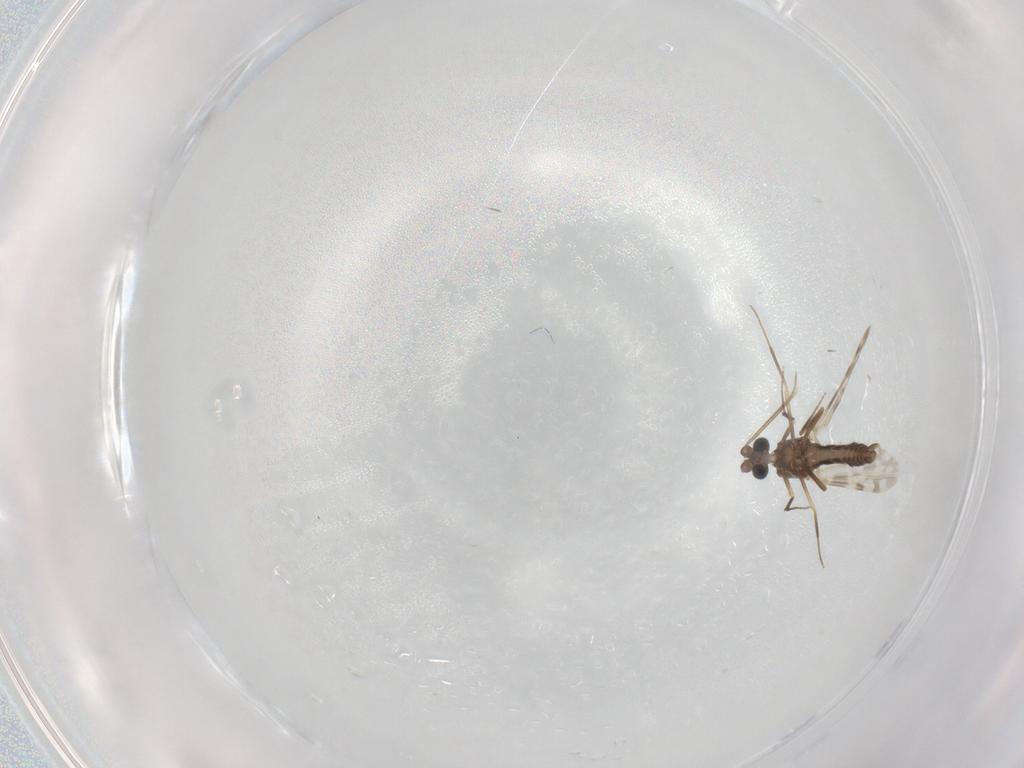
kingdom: Animalia
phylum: Arthropoda
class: Insecta
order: Diptera
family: Ceratopogonidae
